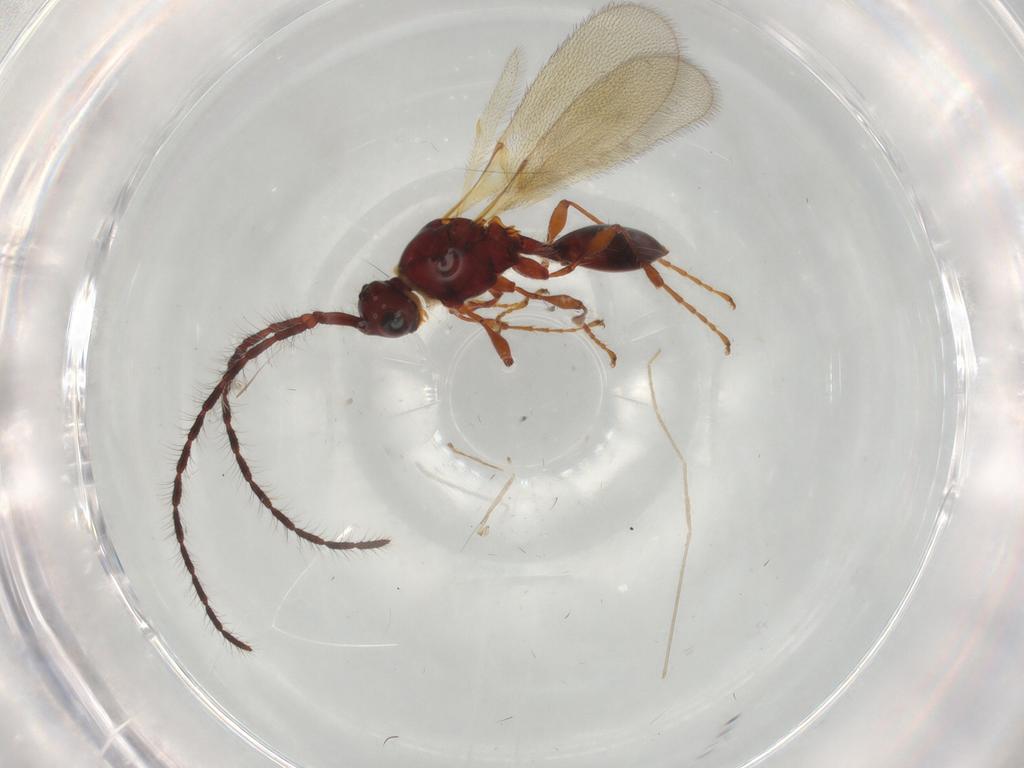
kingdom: Animalia
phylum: Arthropoda
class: Insecta
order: Hymenoptera
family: Diapriidae
